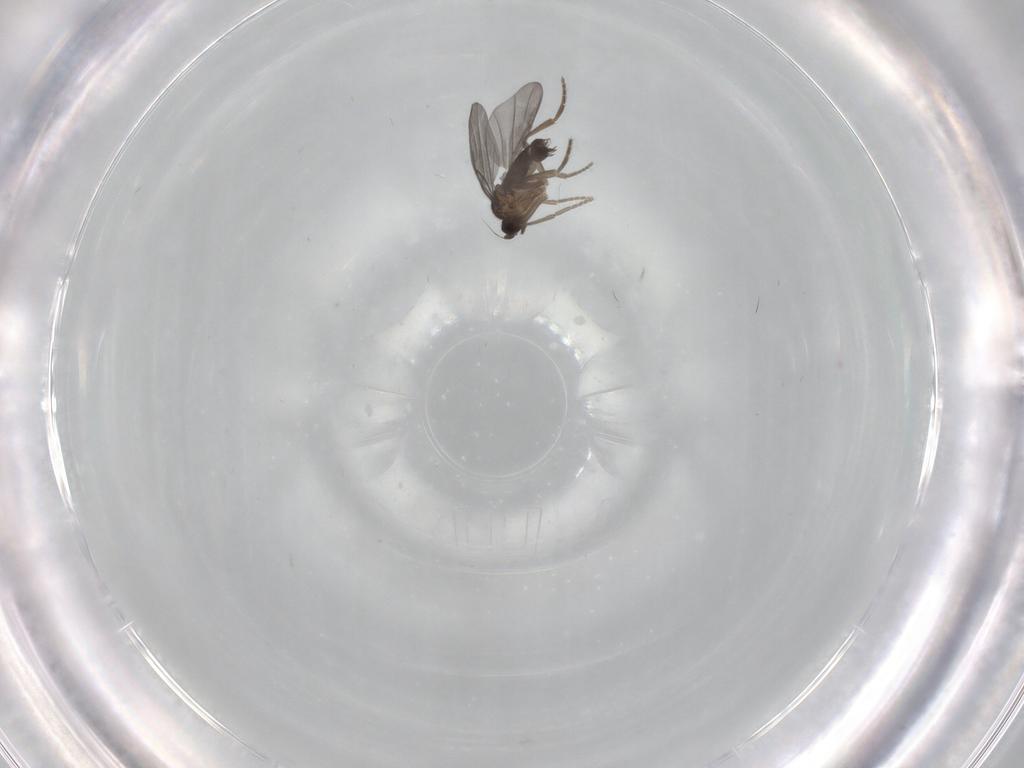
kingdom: Animalia
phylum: Arthropoda
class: Insecta
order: Diptera
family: Phoridae
